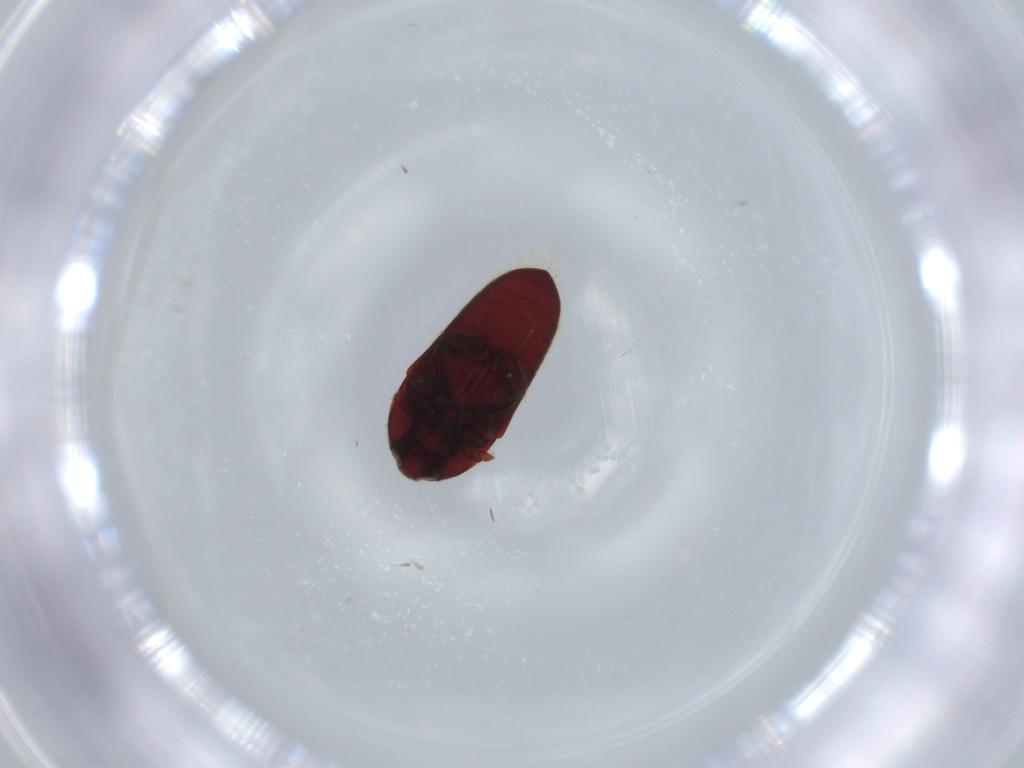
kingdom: Animalia
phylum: Arthropoda
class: Insecta
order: Coleoptera
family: Throscidae
